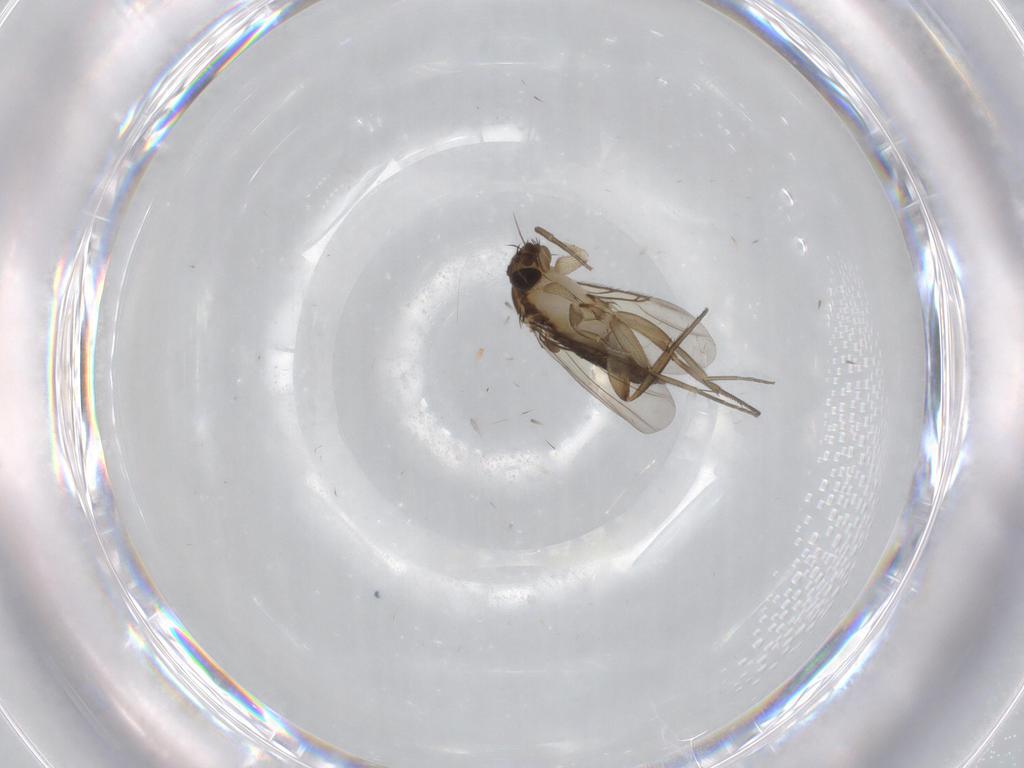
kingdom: Animalia
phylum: Arthropoda
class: Insecta
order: Diptera
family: Phoridae
